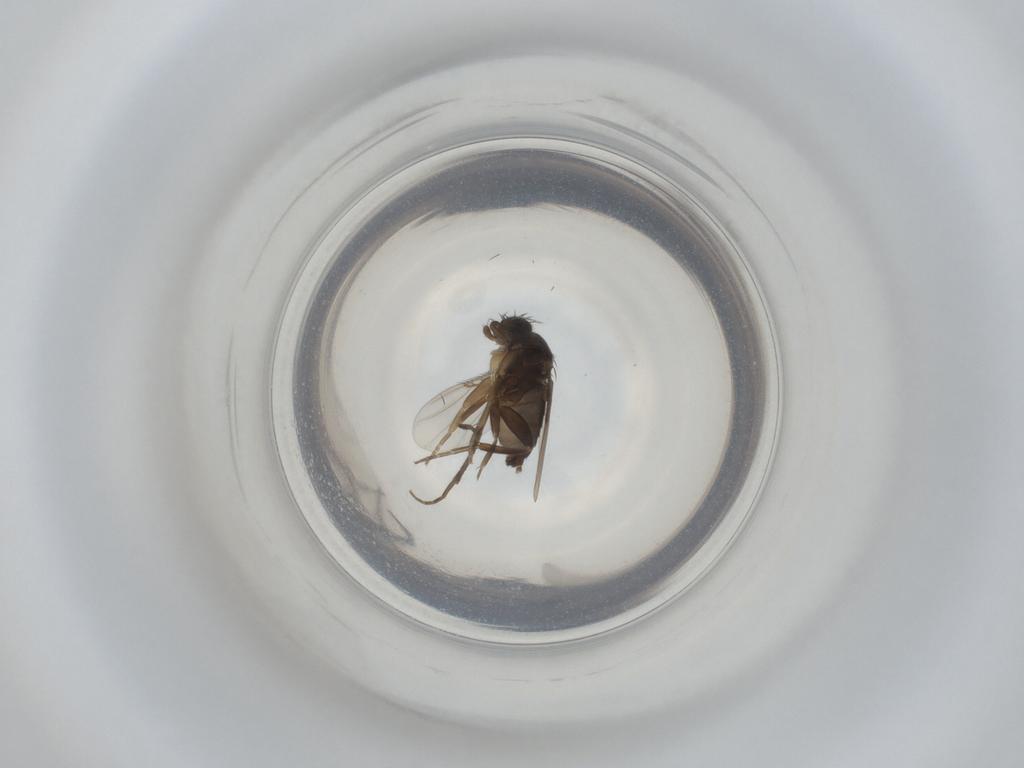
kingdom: Animalia
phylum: Arthropoda
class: Insecta
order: Diptera
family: Phoridae
